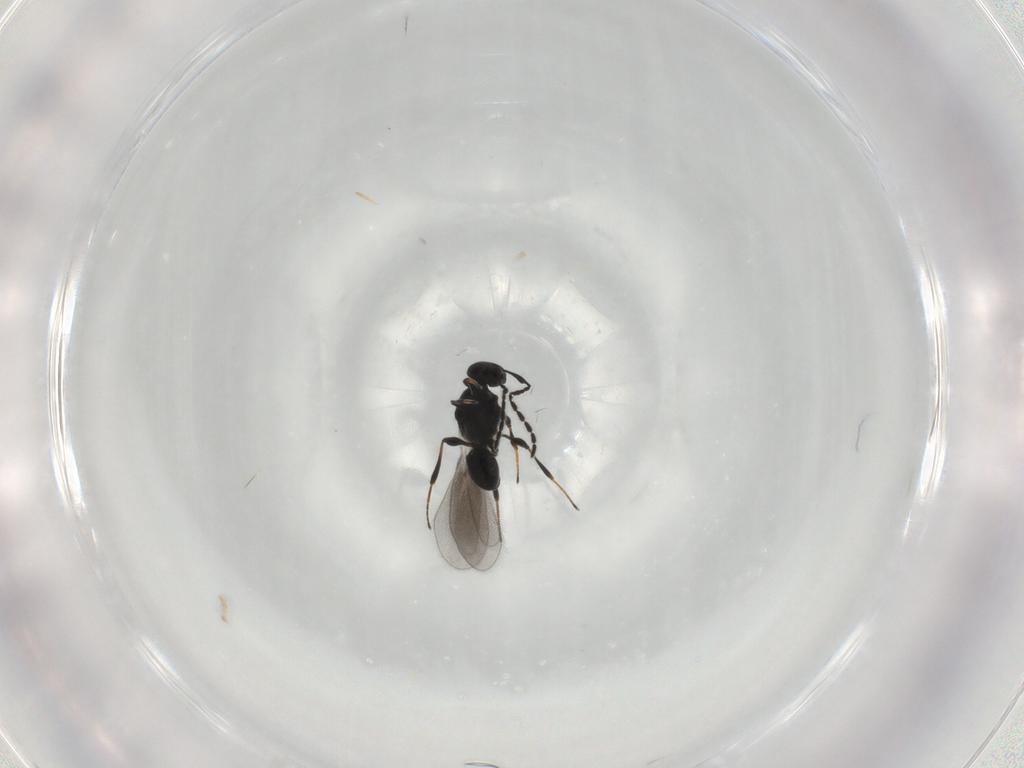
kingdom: Animalia
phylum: Arthropoda
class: Insecta
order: Hymenoptera
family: Platygastridae
